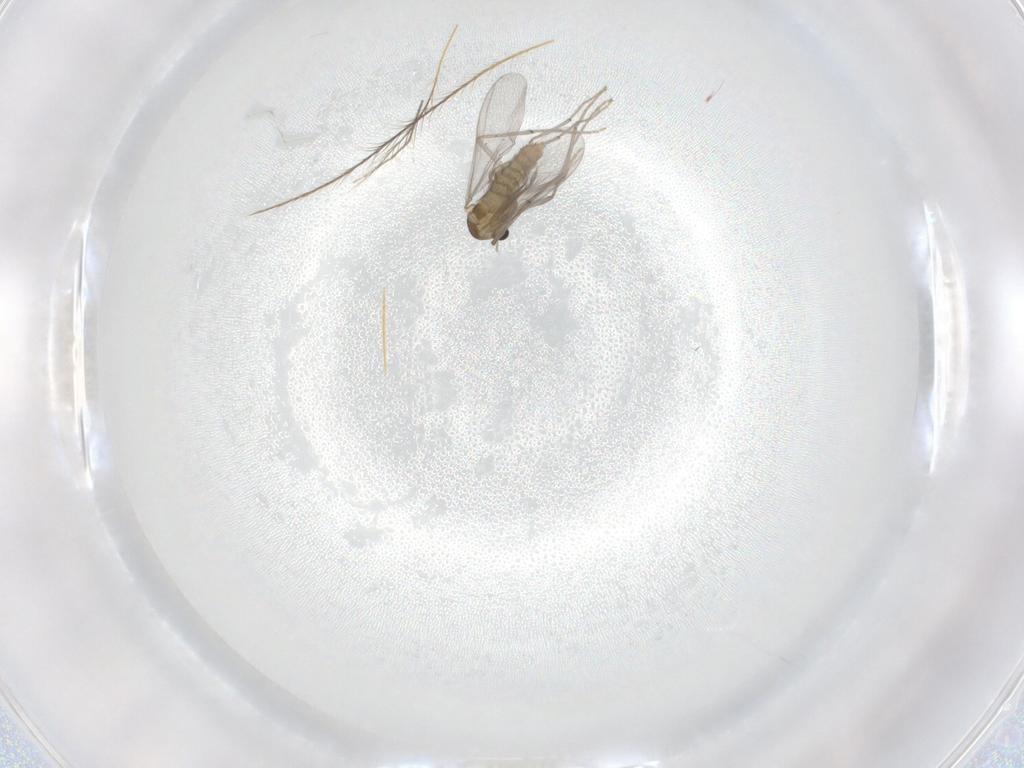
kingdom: Animalia
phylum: Arthropoda
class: Insecta
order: Diptera
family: Chironomidae
